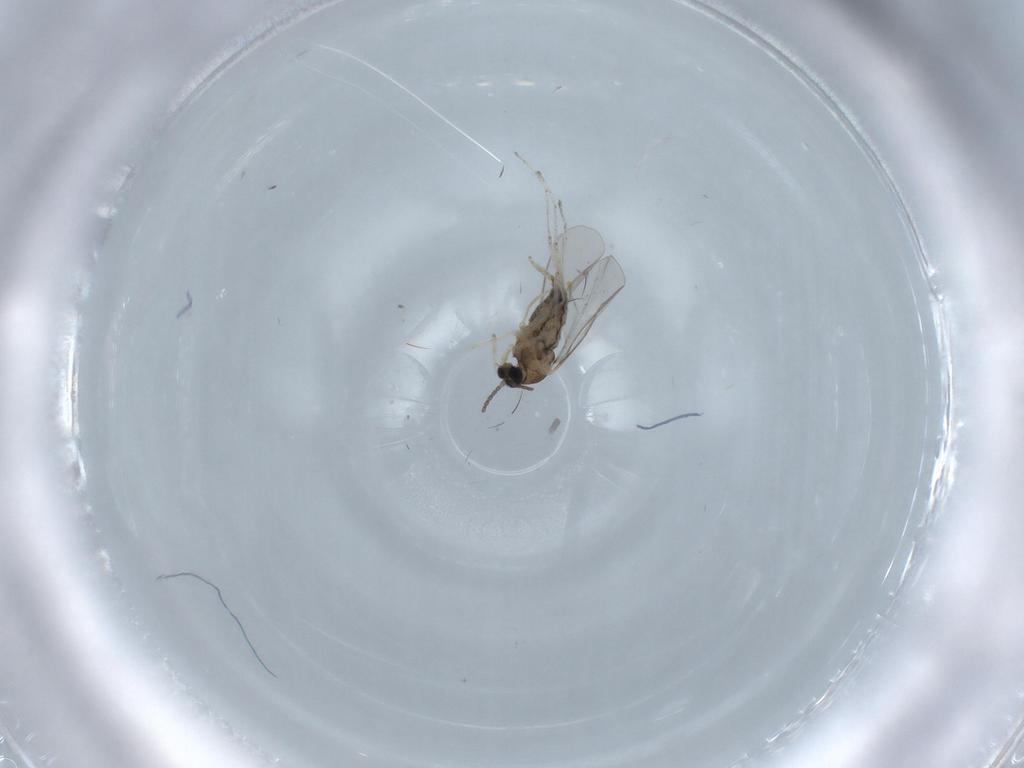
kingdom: Animalia
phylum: Arthropoda
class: Insecta
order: Diptera
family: Cecidomyiidae
